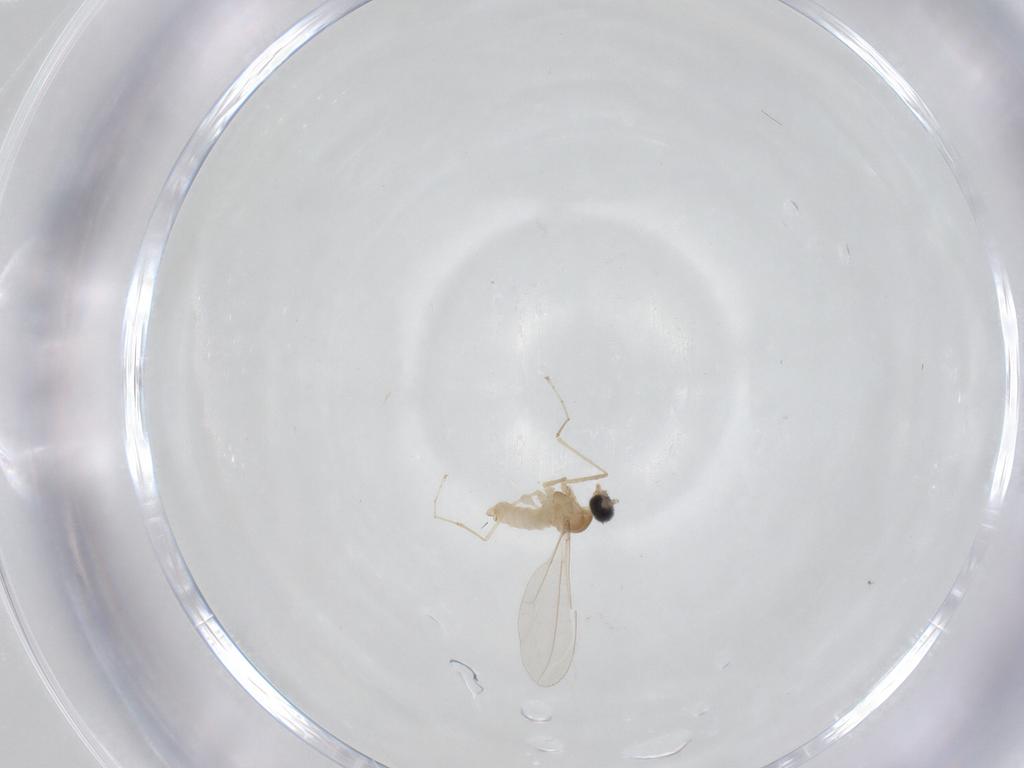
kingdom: Animalia
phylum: Arthropoda
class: Insecta
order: Diptera
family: Cecidomyiidae
